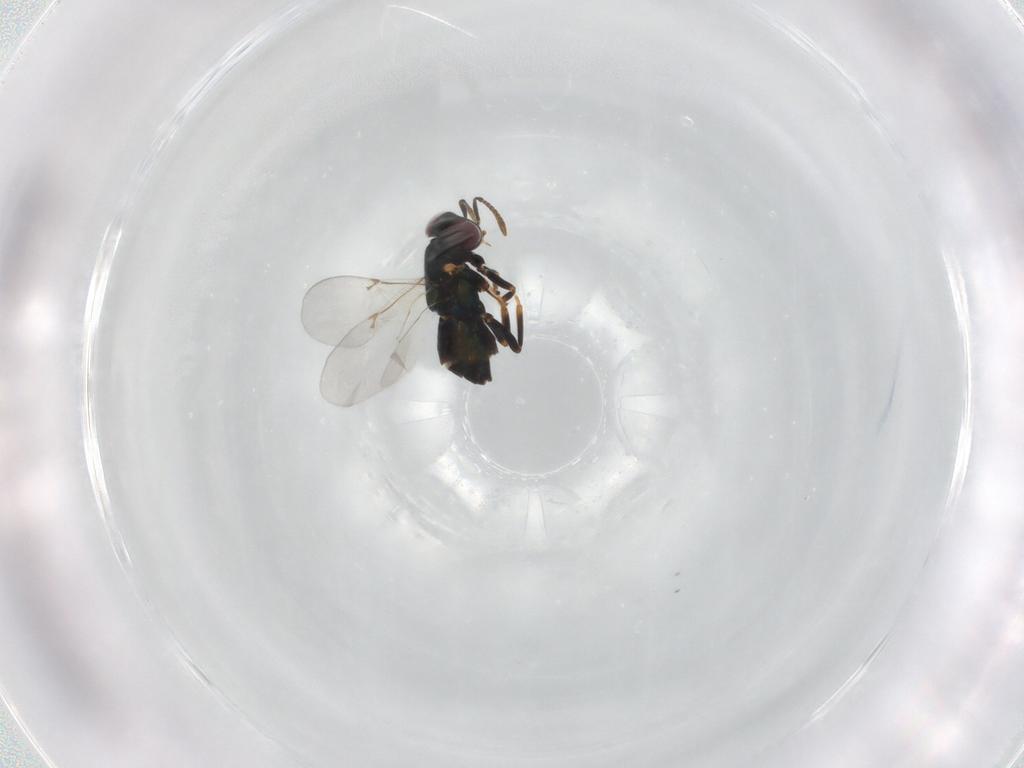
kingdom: Animalia
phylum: Arthropoda
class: Insecta
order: Hymenoptera
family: Encyrtidae
